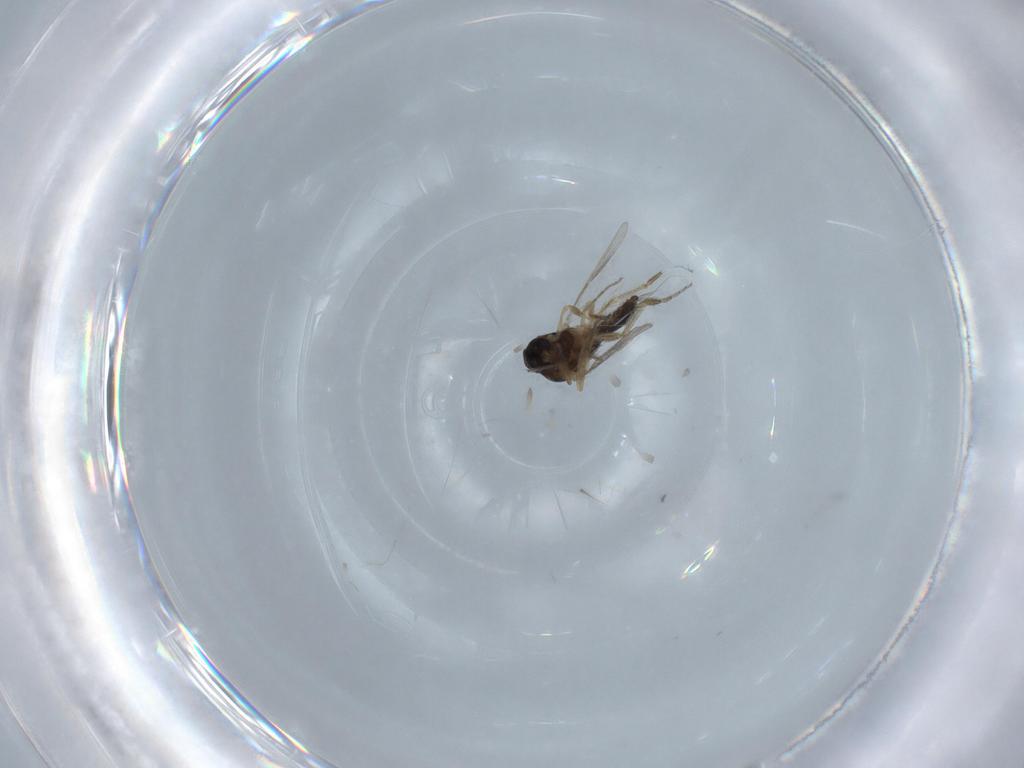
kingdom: Animalia
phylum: Arthropoda
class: Insecta
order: Diptera
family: Ceratopogonidae
